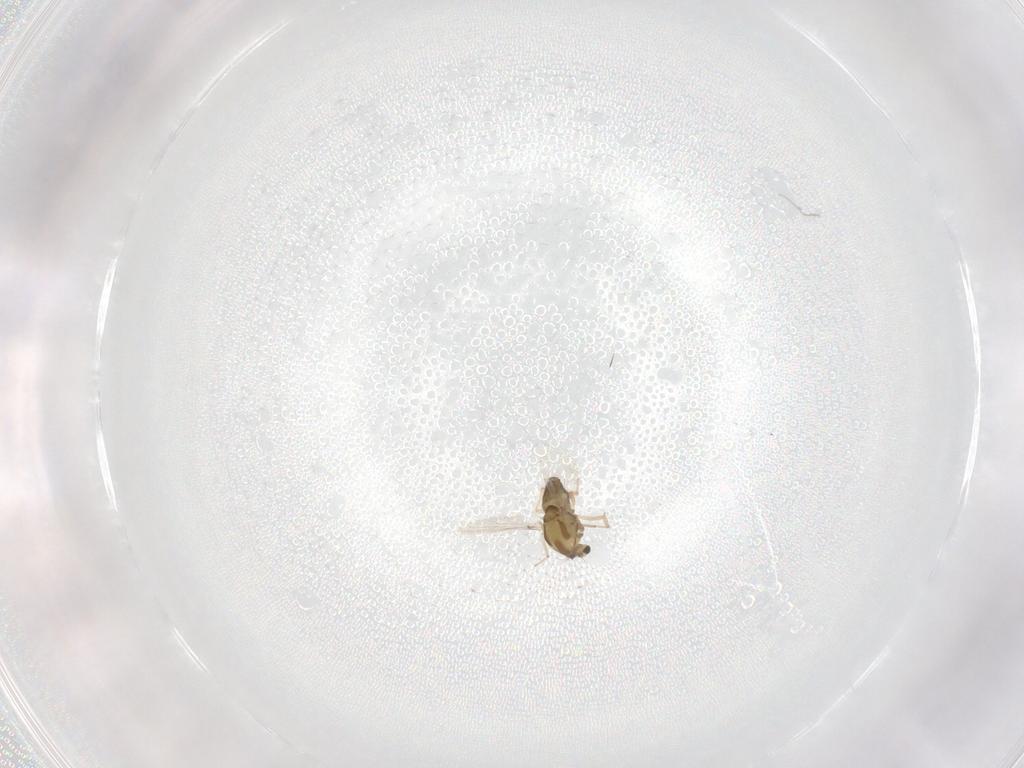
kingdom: Animalia
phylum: Arthropoda
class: Insecta
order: Diptera
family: Chironomidae
